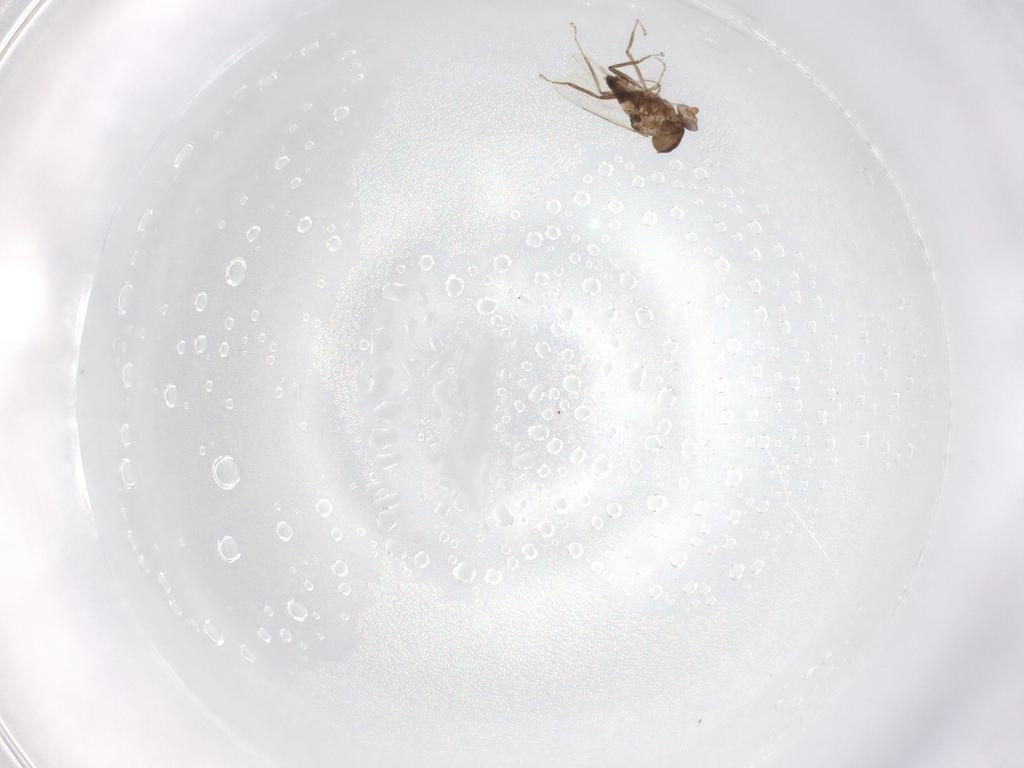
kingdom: Animalia
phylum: Arthropoda
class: Insecta
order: Diptera
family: Ceratopogonidae
